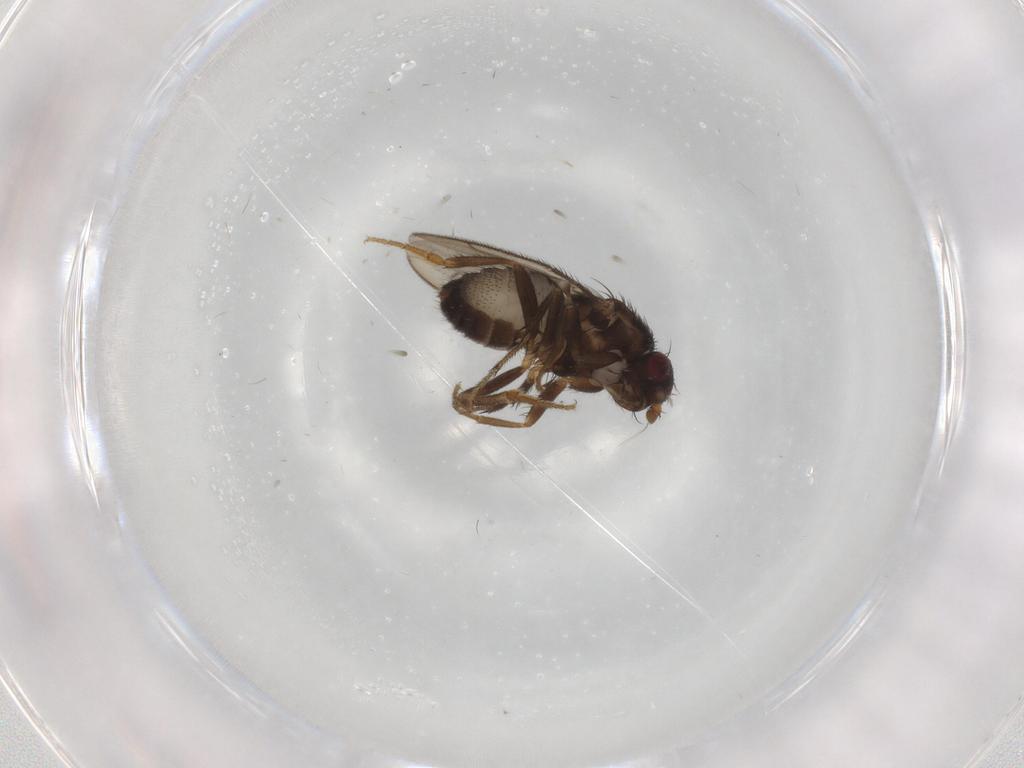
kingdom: Animalia
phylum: Arthropoda
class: Insecta
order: Diptera
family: Sphaeroceridae
